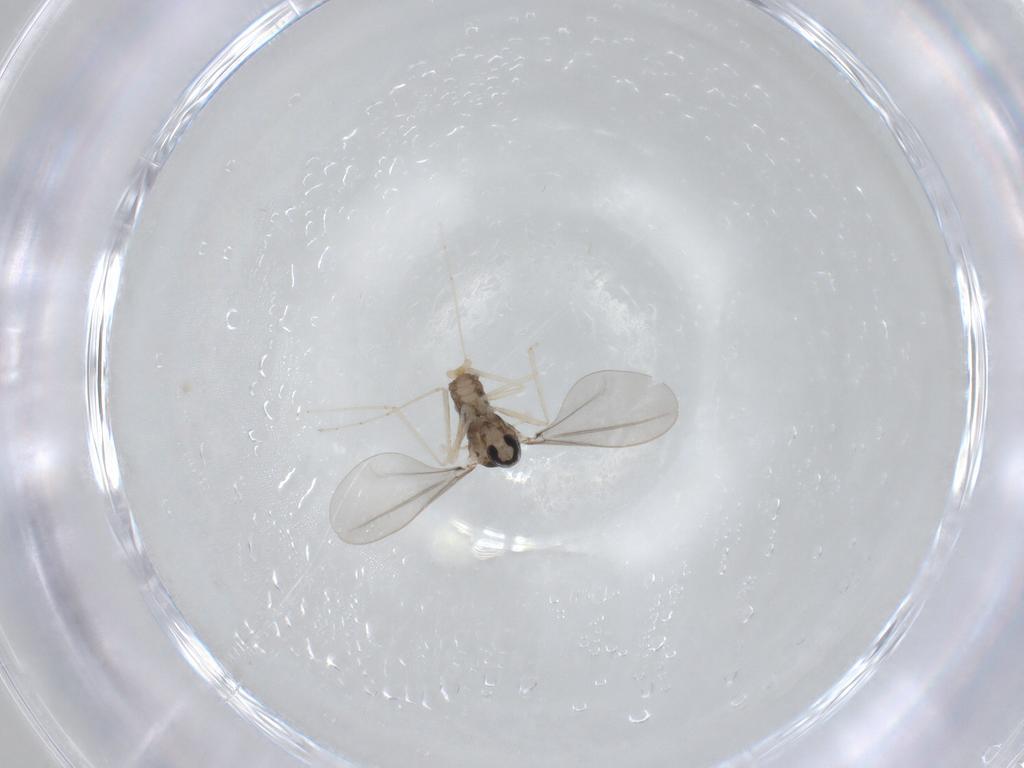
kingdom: Animalia
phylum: Arthropoda
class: Insecta
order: Diptera
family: Cecidomyiidae
